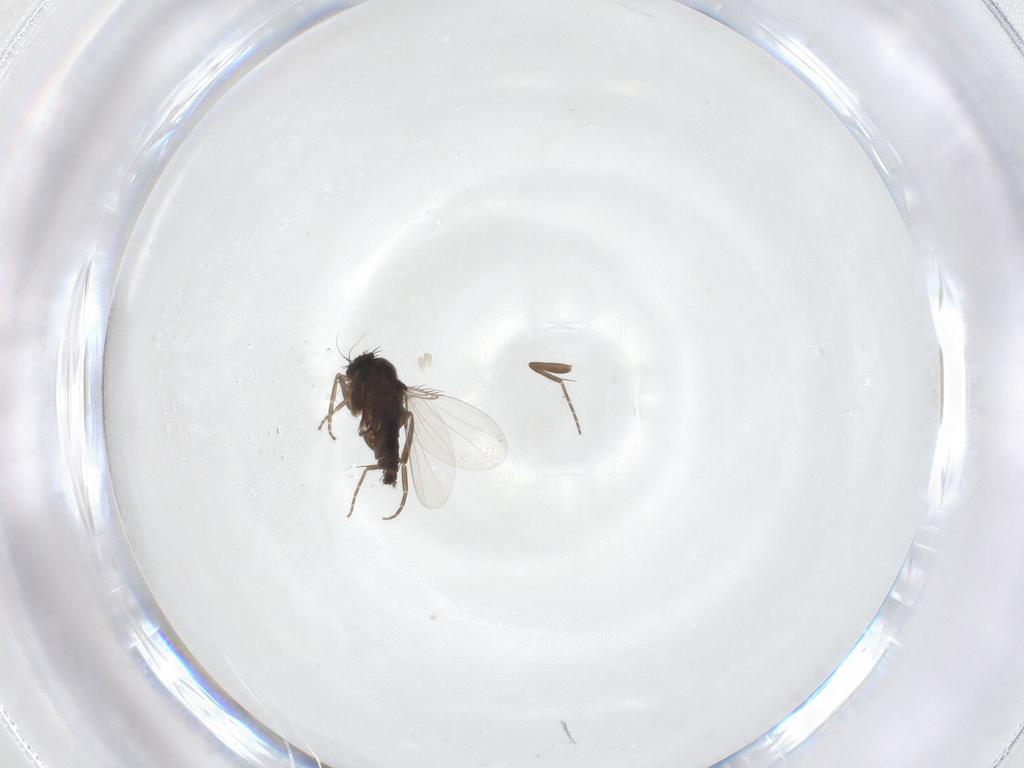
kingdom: Animalia
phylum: Arthropoda
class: Insecta
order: Diptera
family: Phoridae
